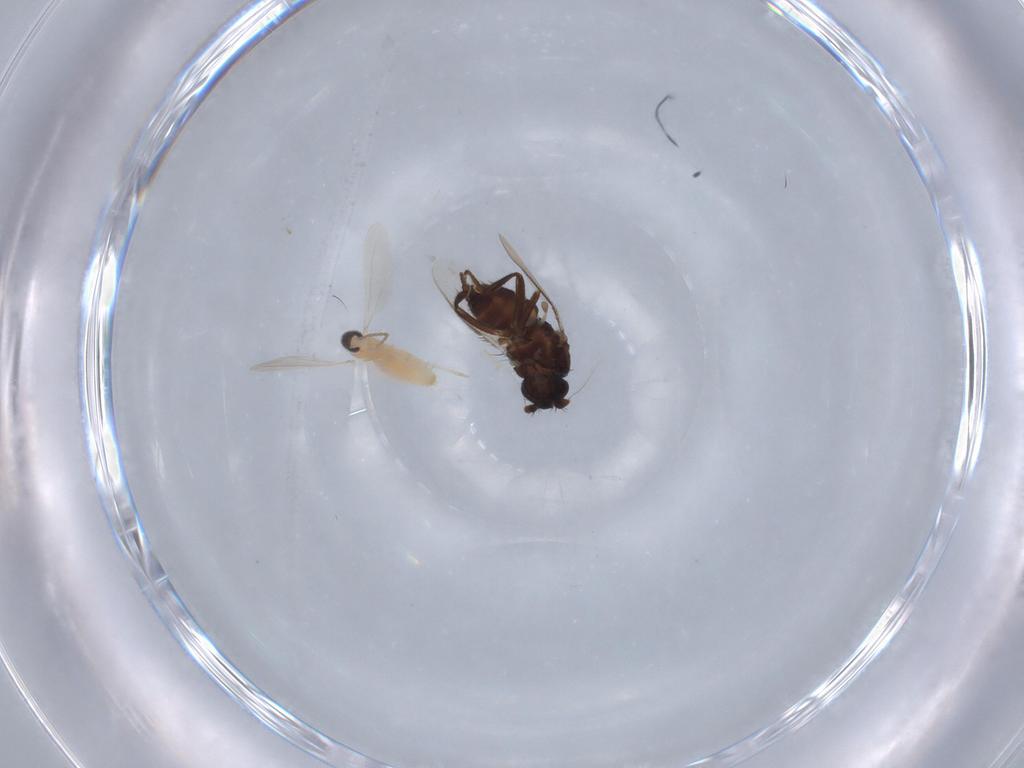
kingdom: Animalia
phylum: Arthropoda
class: Insecta
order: Diptera
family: Sphaeroceridae
